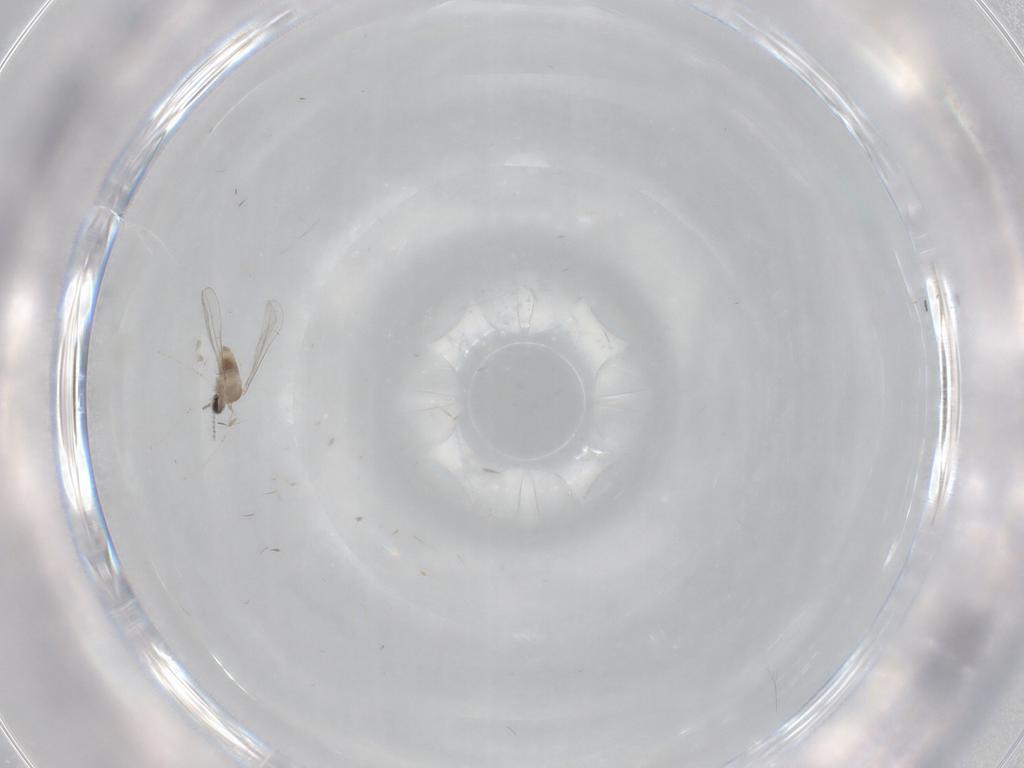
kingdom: Animalia
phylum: Arthropoda
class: Insecta
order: Diptera
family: Cecidomyiidae
